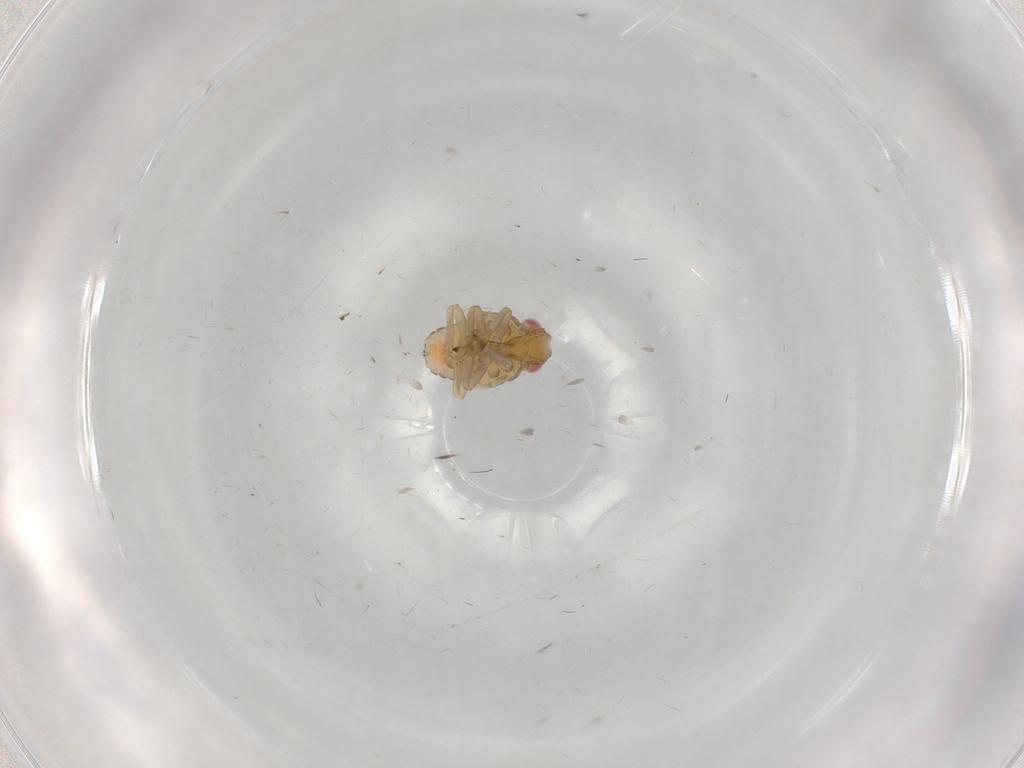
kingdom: Animalia
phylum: Arthropoda
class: Insecta
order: Hemiptera
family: Tropiduchidae
